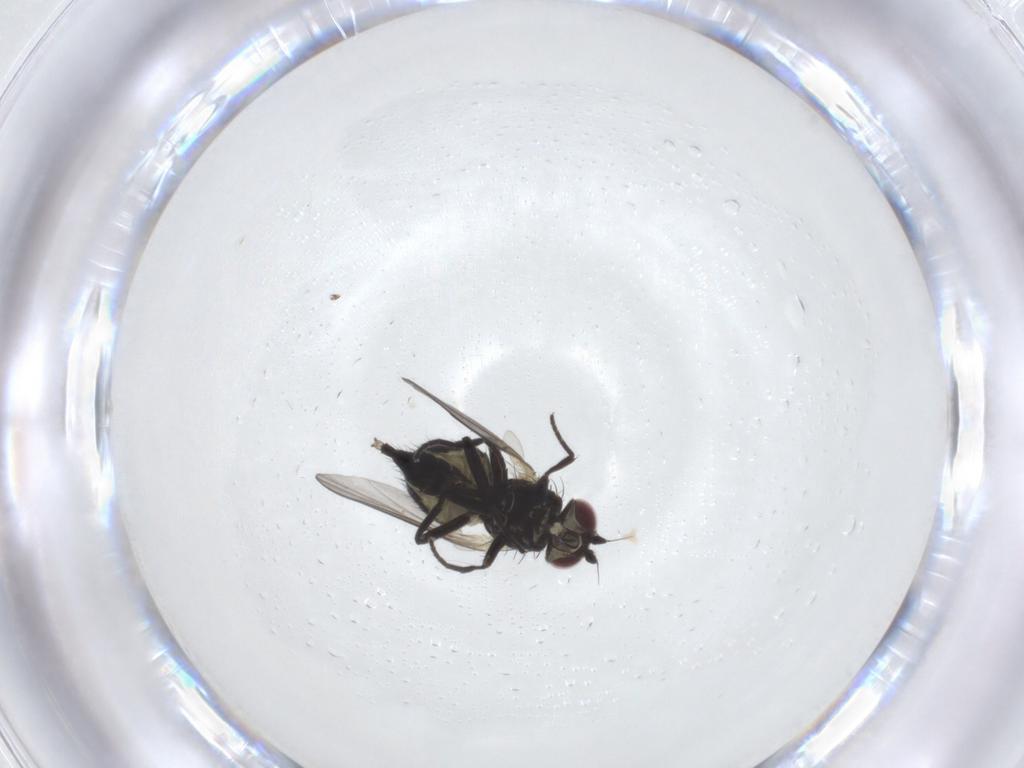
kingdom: Animalia
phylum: Arthropoda
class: Insecta
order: Diptera
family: Agromyzidae
